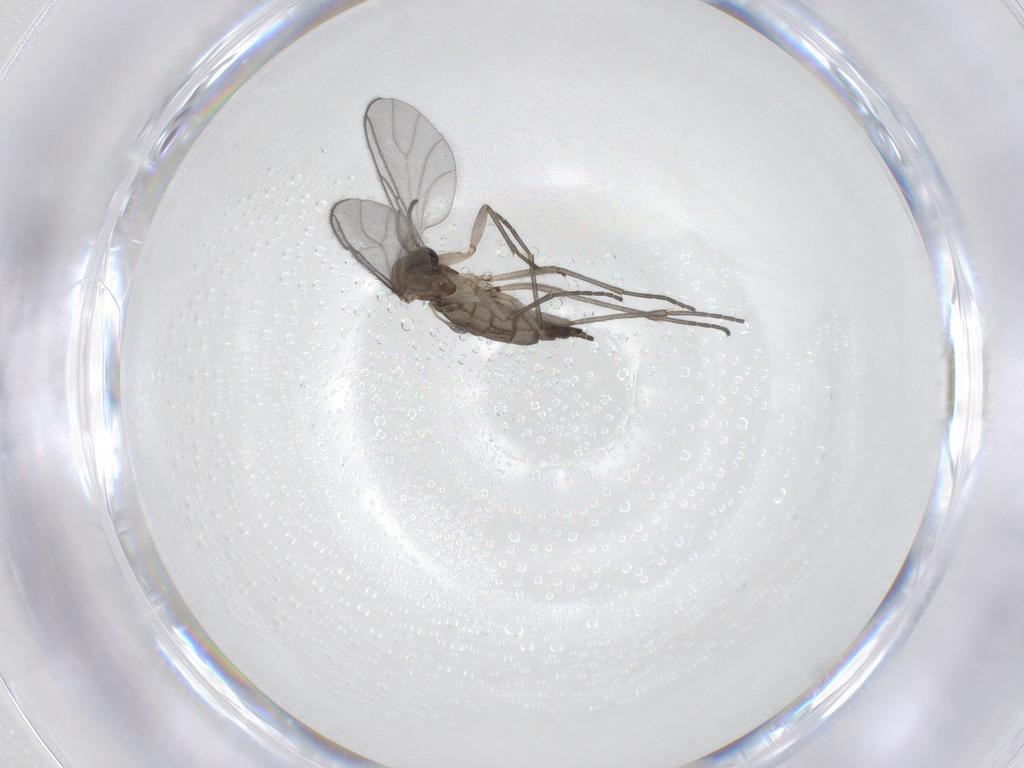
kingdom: Animalia
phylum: Arthropoda
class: Insecta
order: Diptera
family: Sciaridae
